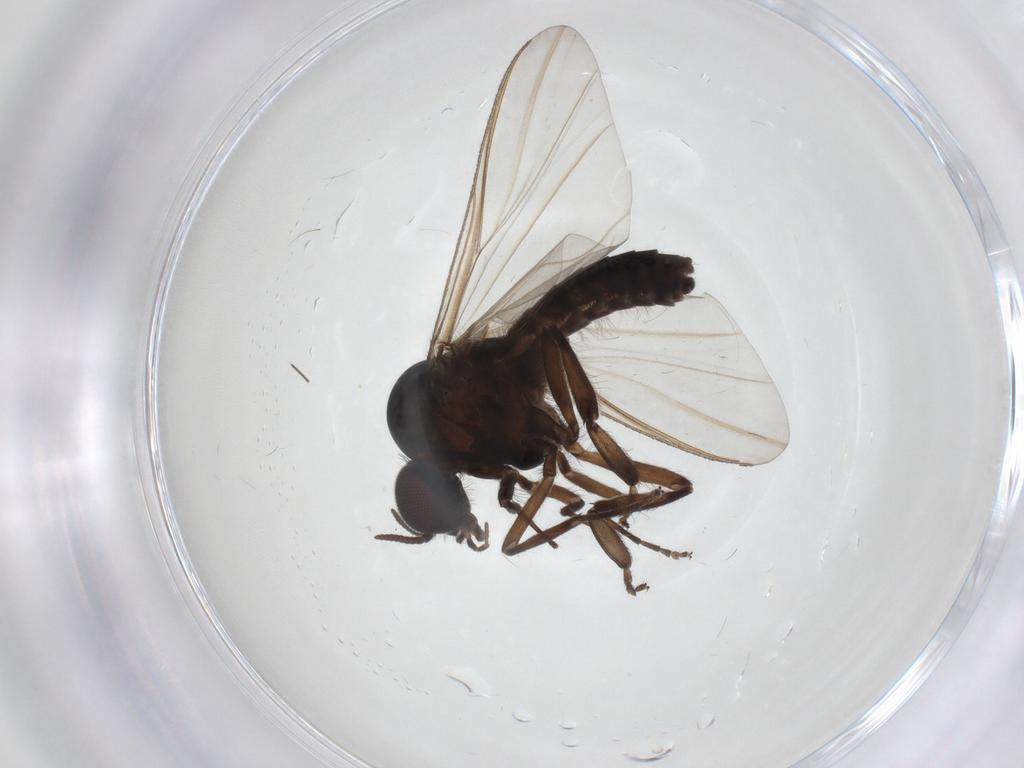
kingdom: Animalia
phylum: Arthropoda
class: Insecta
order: Diptera
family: Simuliidae
